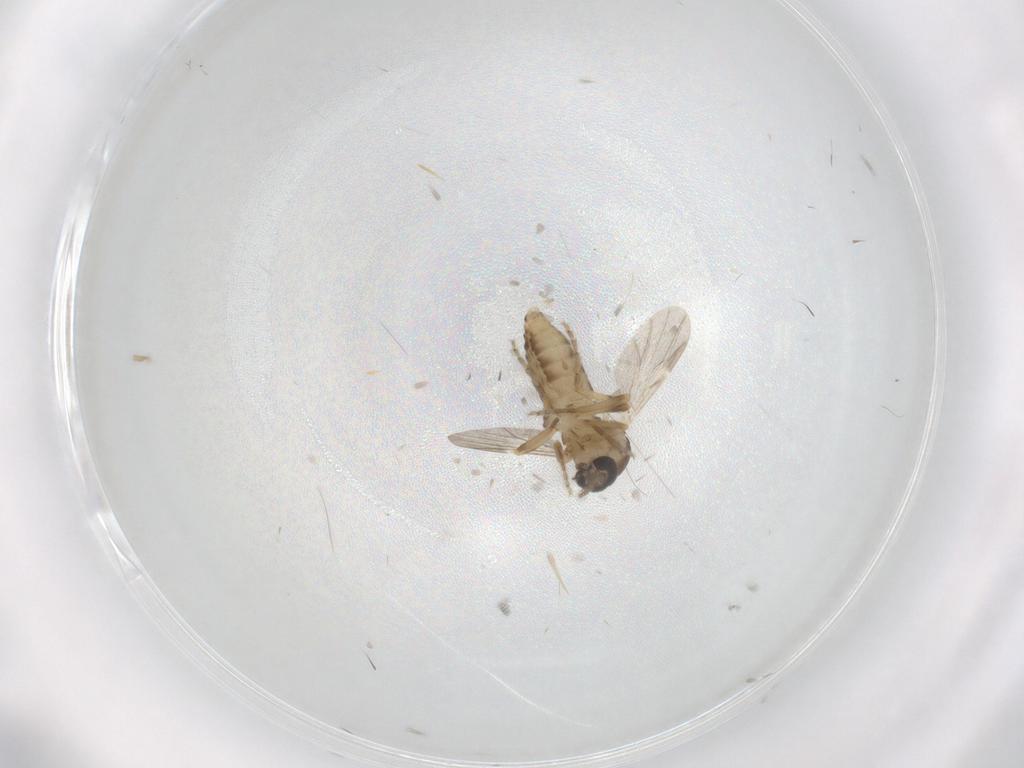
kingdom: Animalia
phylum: Arthropoda
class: Insecta
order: Diptera
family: Ceratopogonidae
